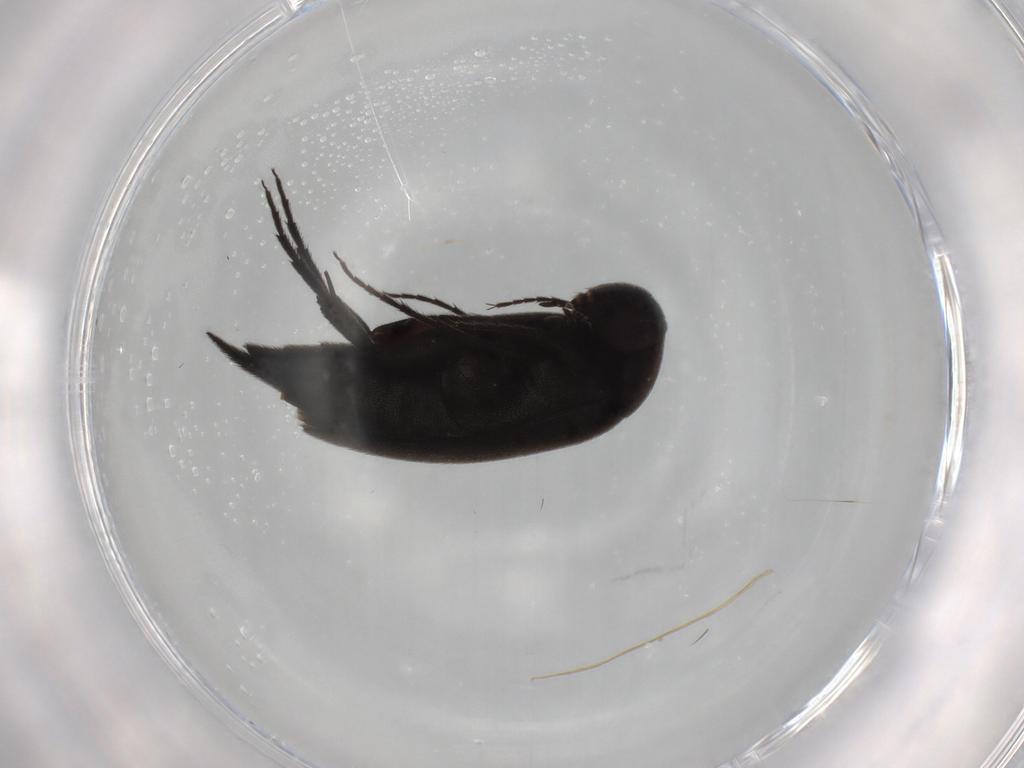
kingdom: Animalia
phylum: Arthropoda
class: Insecta
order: Coleoptera
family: Mordellidae
